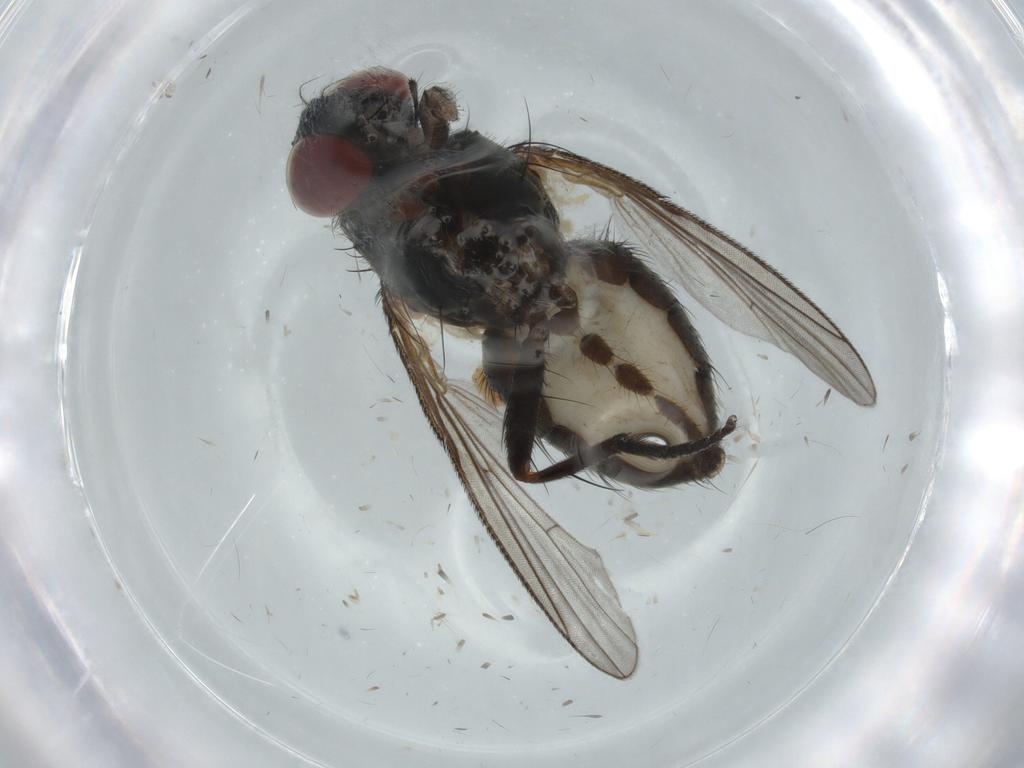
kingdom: Animalia
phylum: Arthropoda
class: Insecta
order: Diptera
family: Muscidae
